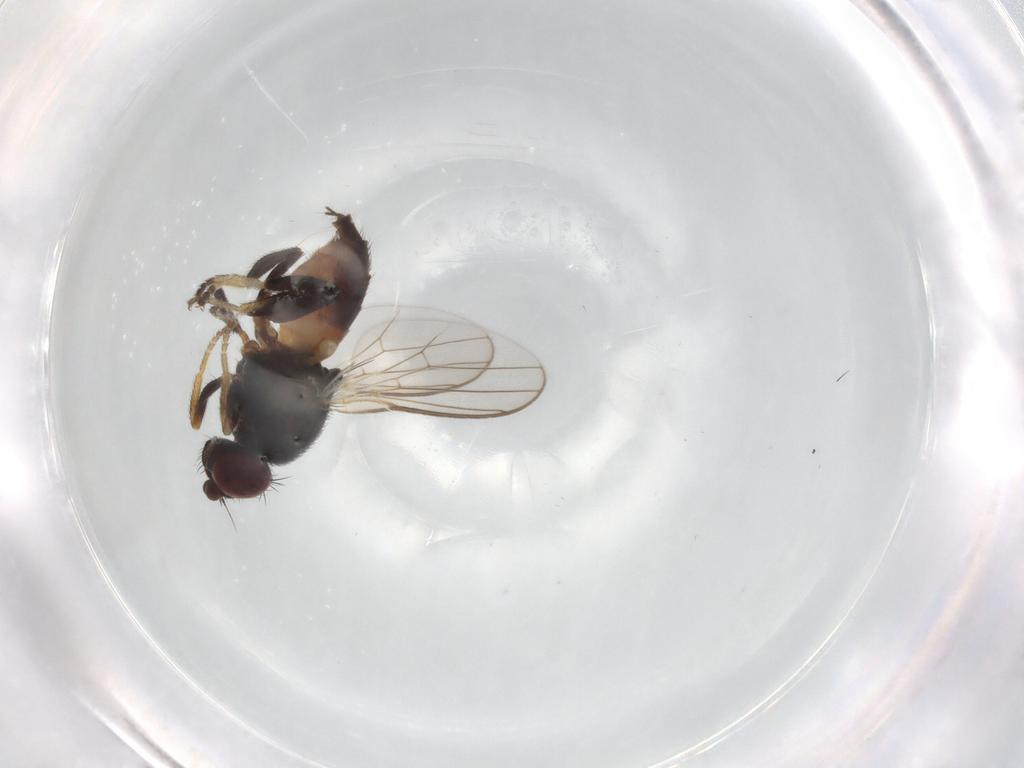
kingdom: Animalia
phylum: Arthropoda
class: Insecta
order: Diptera
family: Chloropidae
